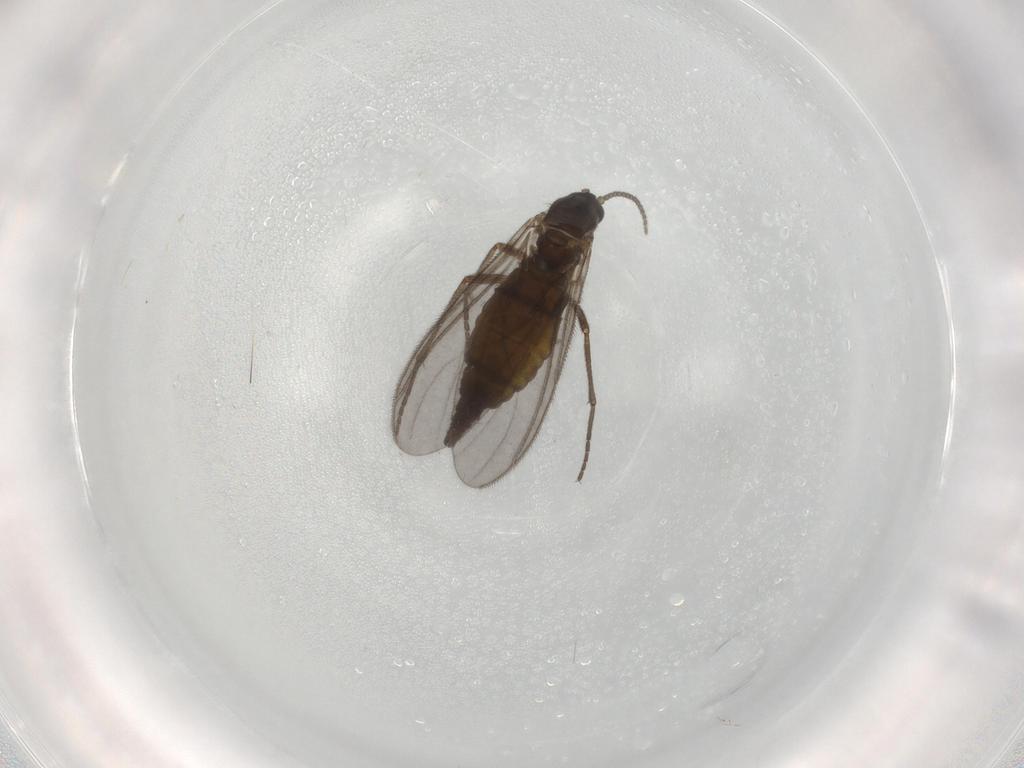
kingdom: Animalia
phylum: Arthropoda
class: Insecta
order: Diptera
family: Sciaridae
